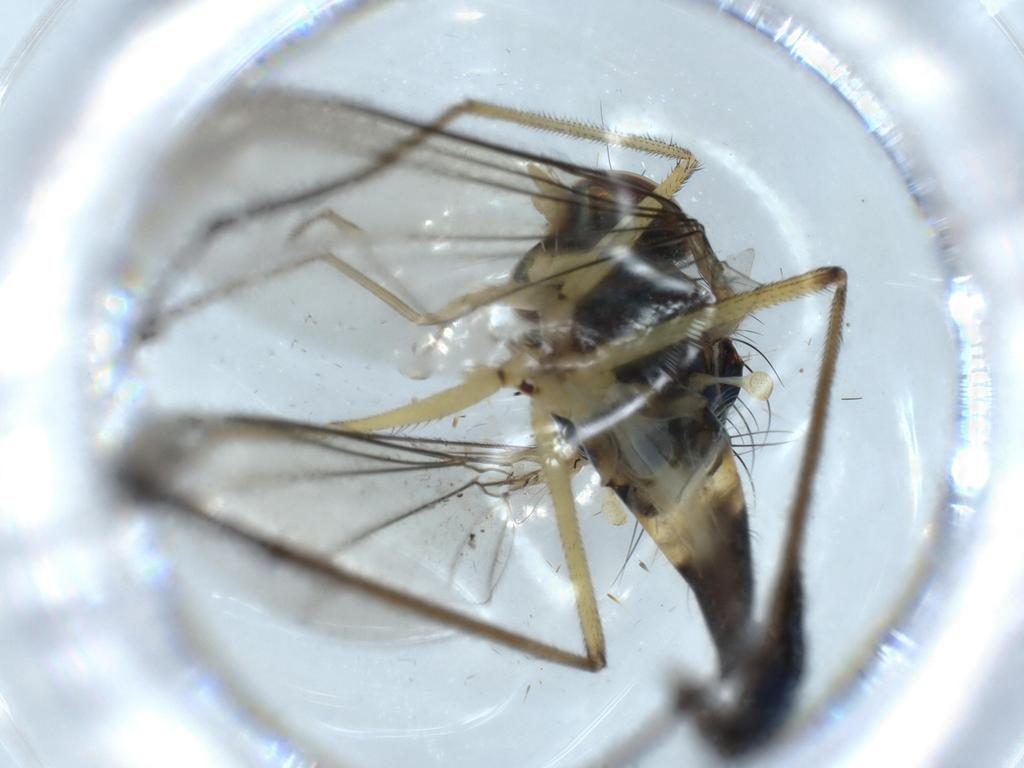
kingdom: Animalia
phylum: Arthropoda
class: Insecta
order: Diptera
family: Dolichopodidae
